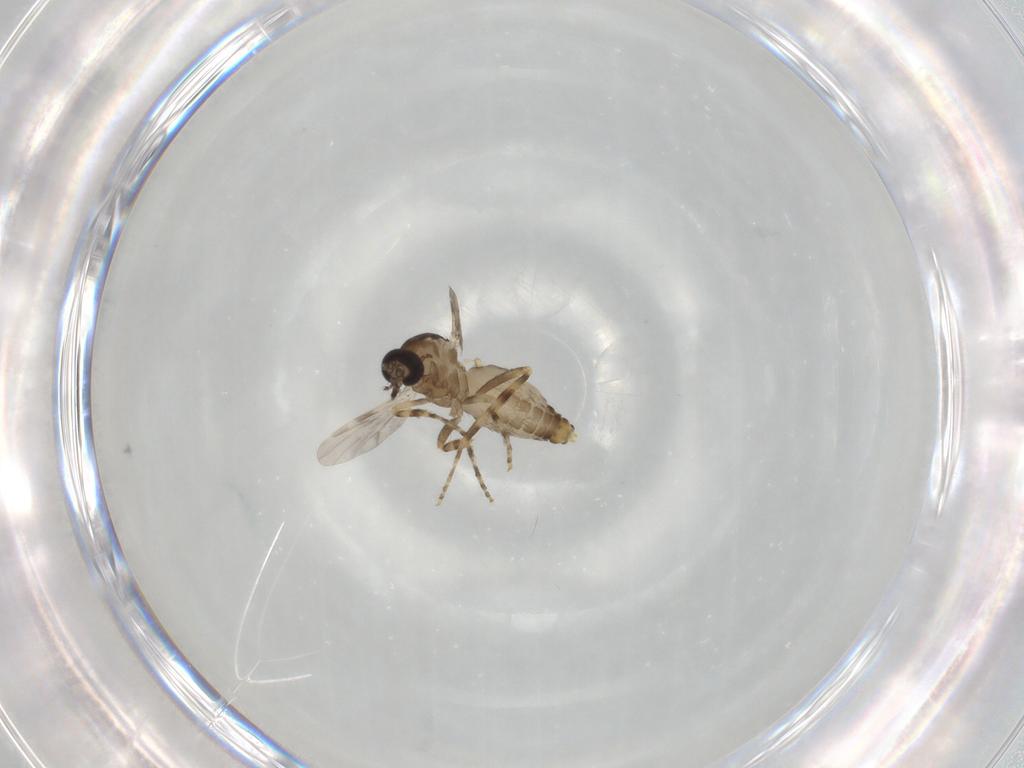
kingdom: Animalia
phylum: Arthropoda
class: Insecta
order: Diptera
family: Ceratopogonidae
